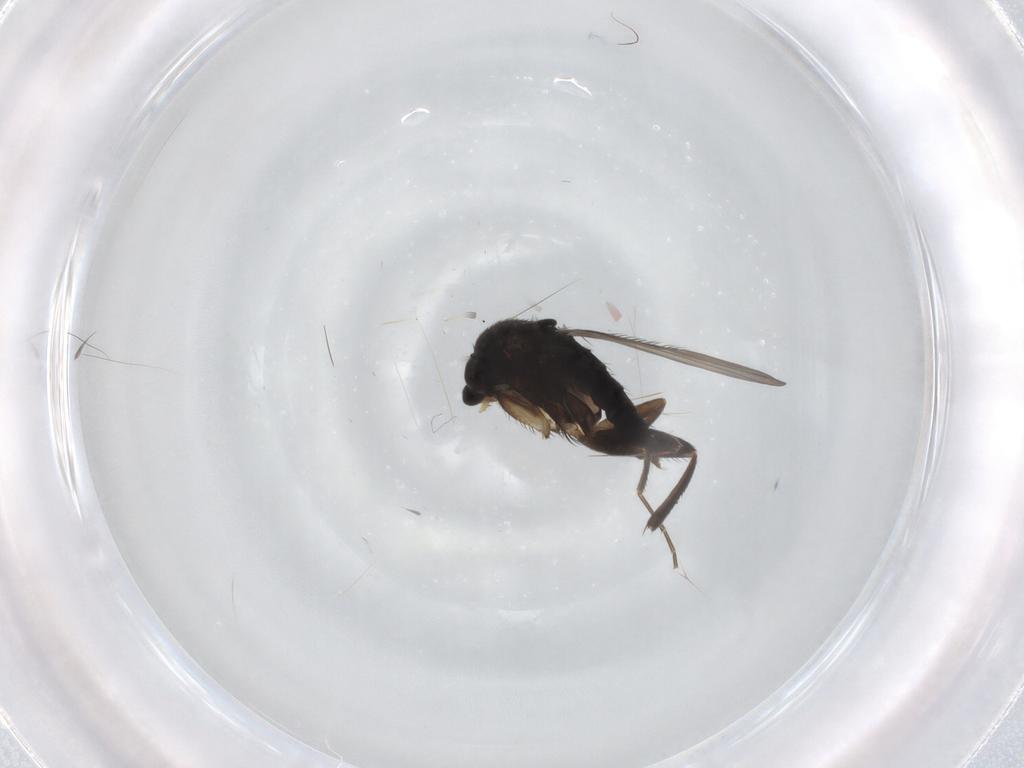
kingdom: Animalia
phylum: Arthropoda
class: Insecta
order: Diptera
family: Phoridae
